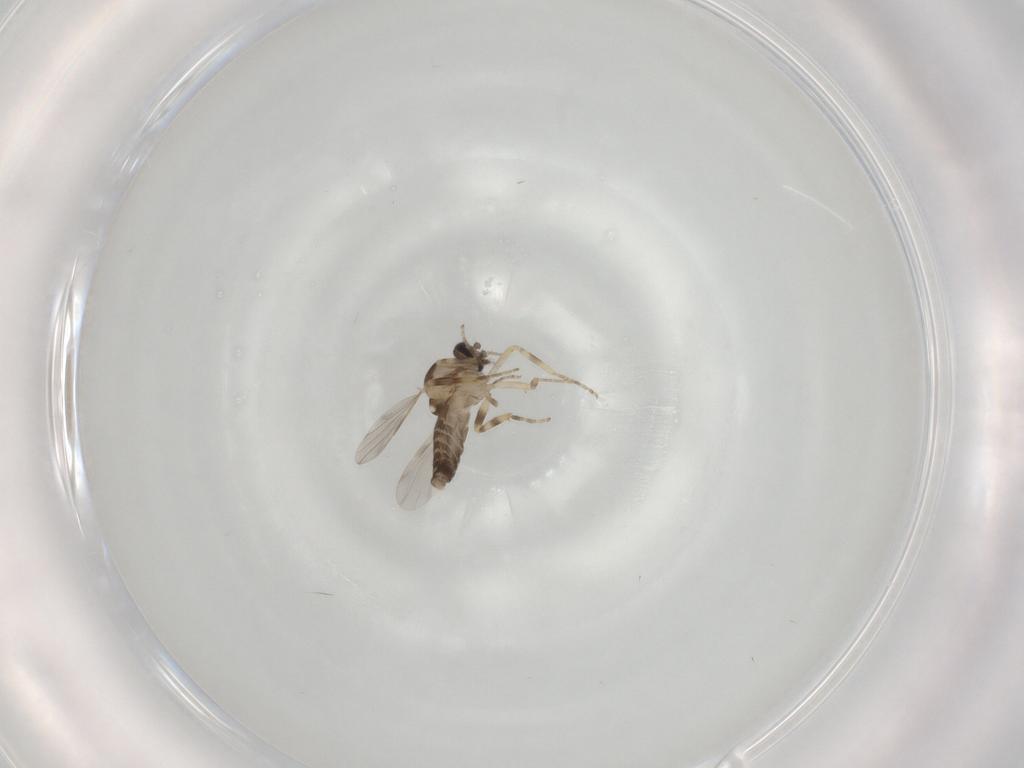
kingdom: Animalia
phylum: Arthropoda
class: Insecta
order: Diptera
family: Ceratopogonidae
